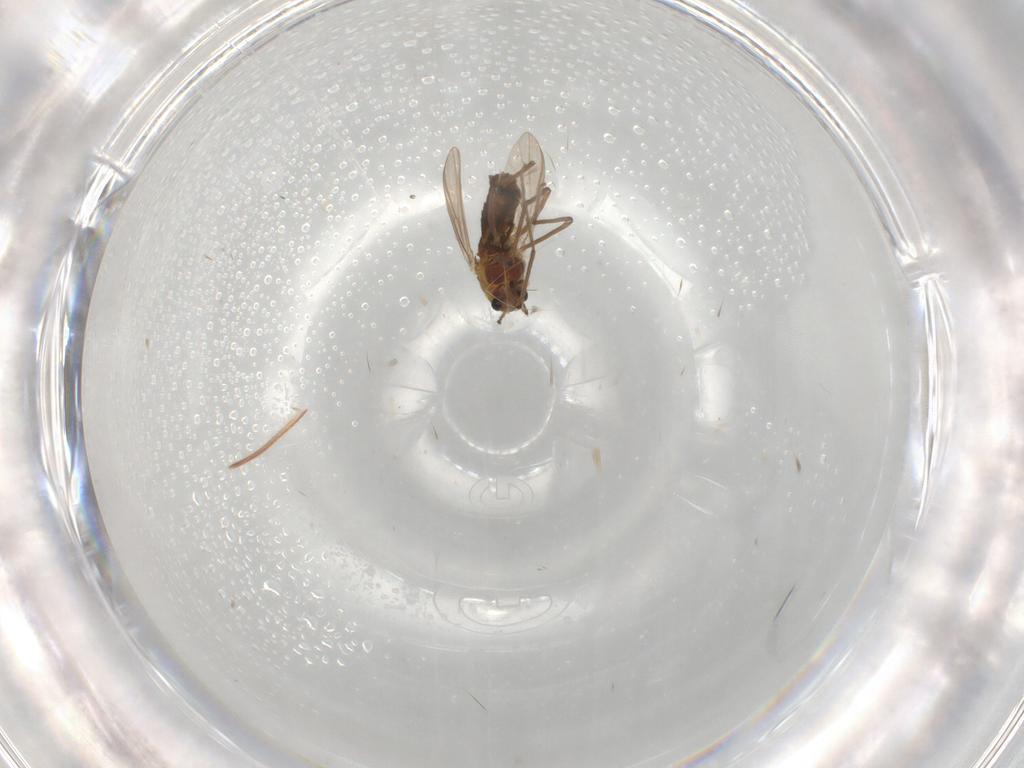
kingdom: Animalia
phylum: Arthropoda
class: Insecta
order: Diptera
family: Chironomidae
